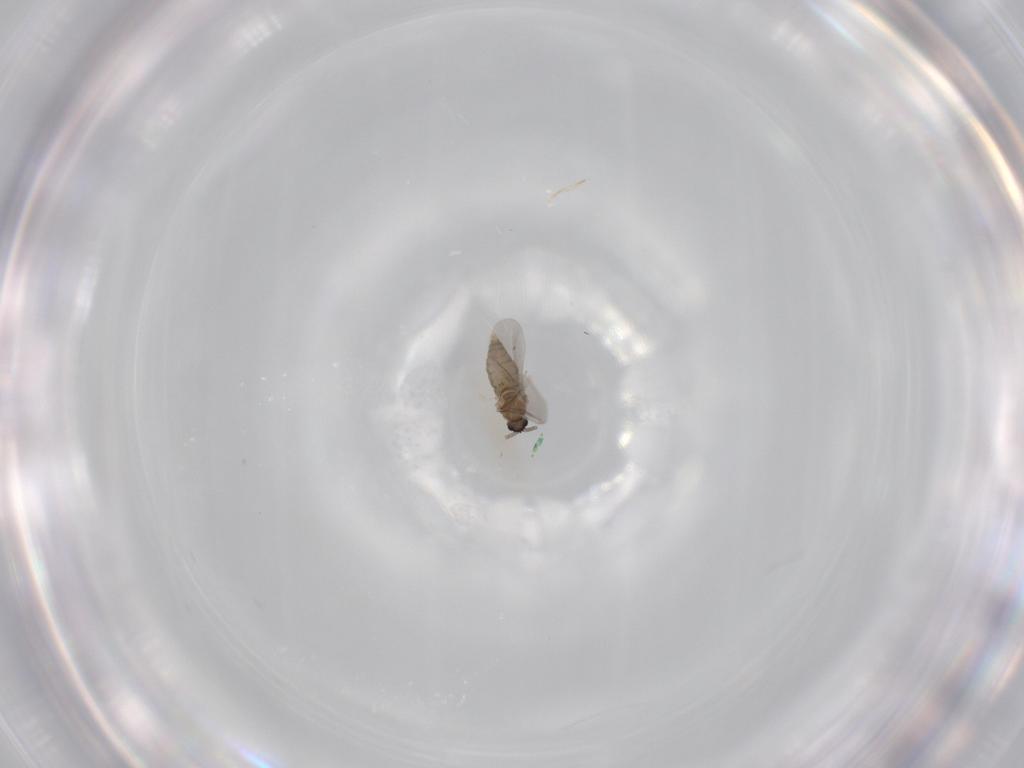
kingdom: Animalia
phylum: Arthropoda
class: Insecta
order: Diptera
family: Cecidomyiidae
